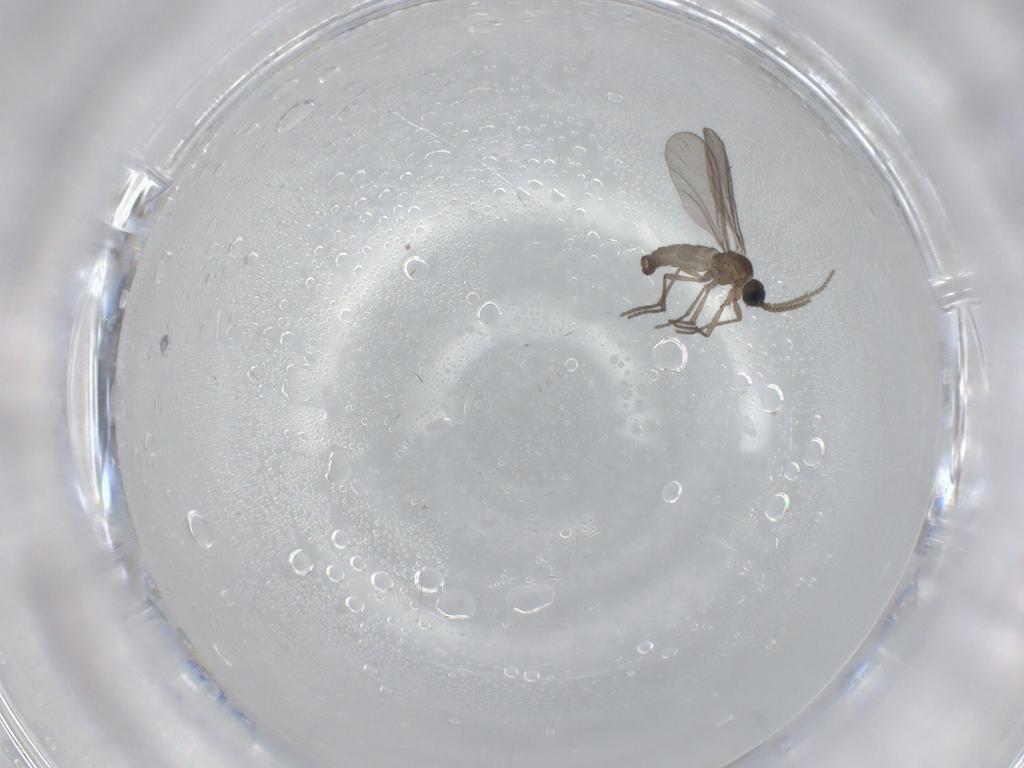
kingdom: Animalia
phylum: Arthropoda
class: Insecta
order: Diptera
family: Sciaridae
